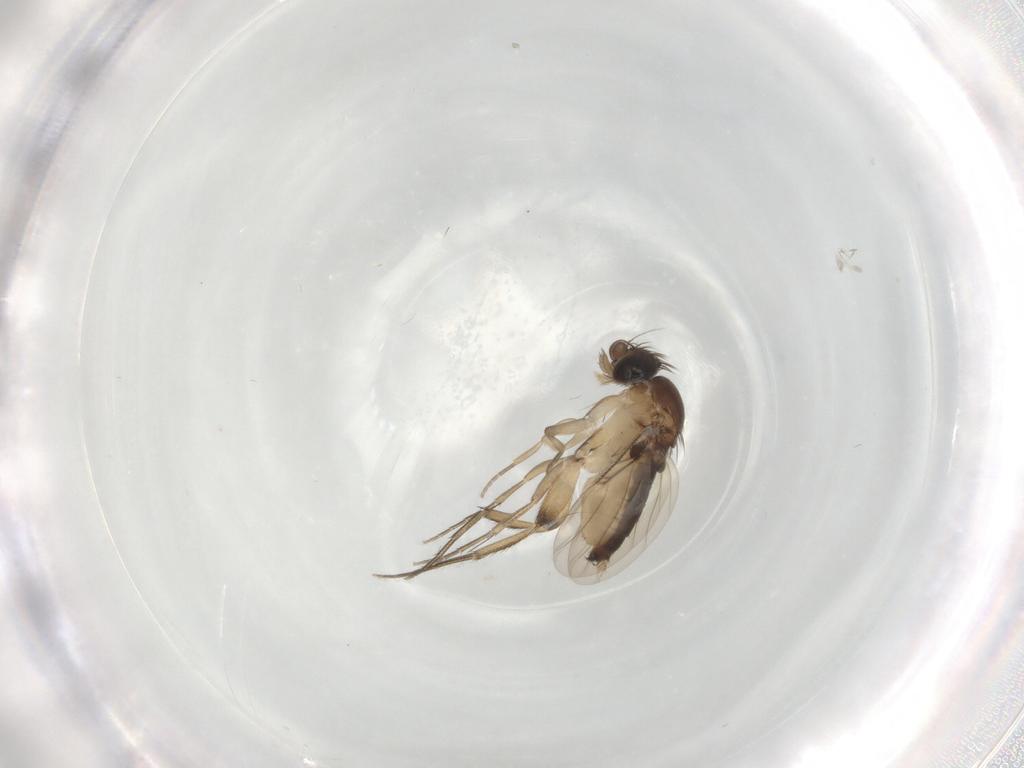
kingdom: Animalia
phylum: Arthropoda
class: Insecta
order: Diptera
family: Phoridae
